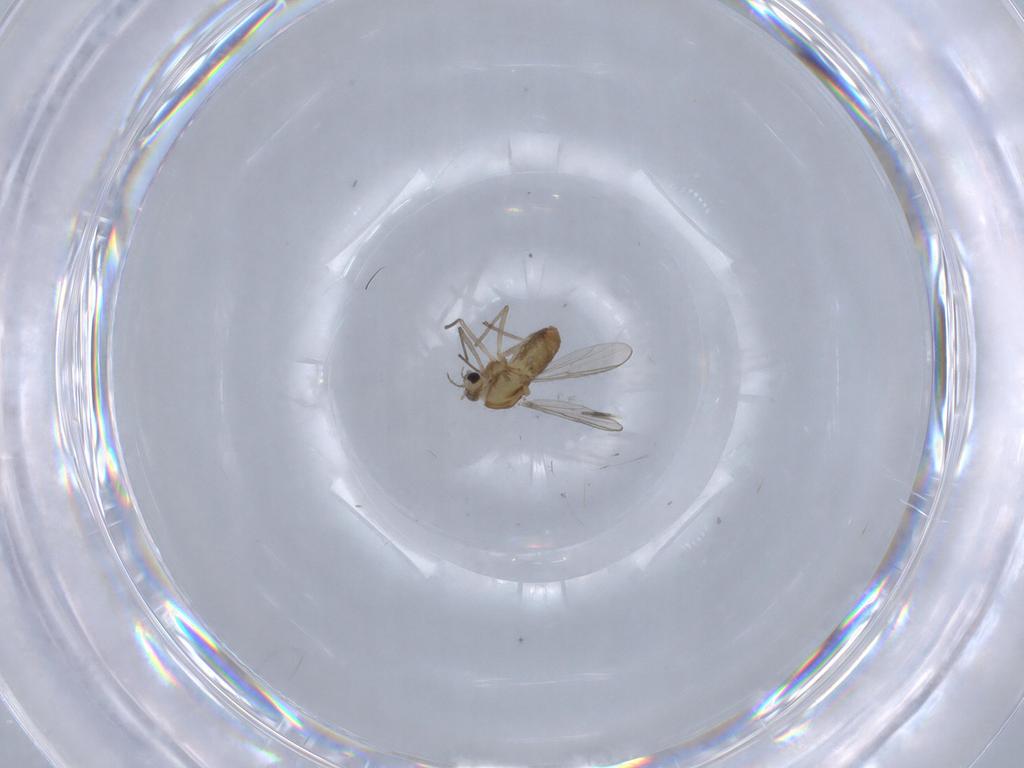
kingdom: Animalia
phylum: Arthropoda
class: Insecta
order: Diptera
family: Chironomidae
